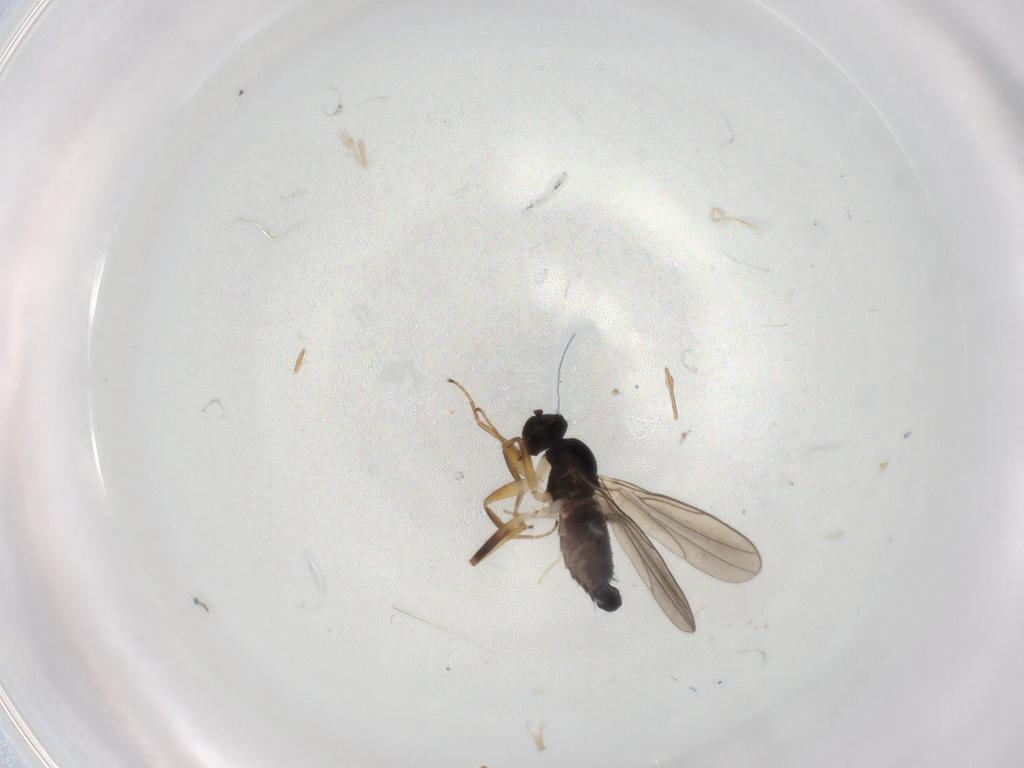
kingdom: Animalia
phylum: Arthropoda
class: Insecta
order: Diptera
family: Hybotidae
